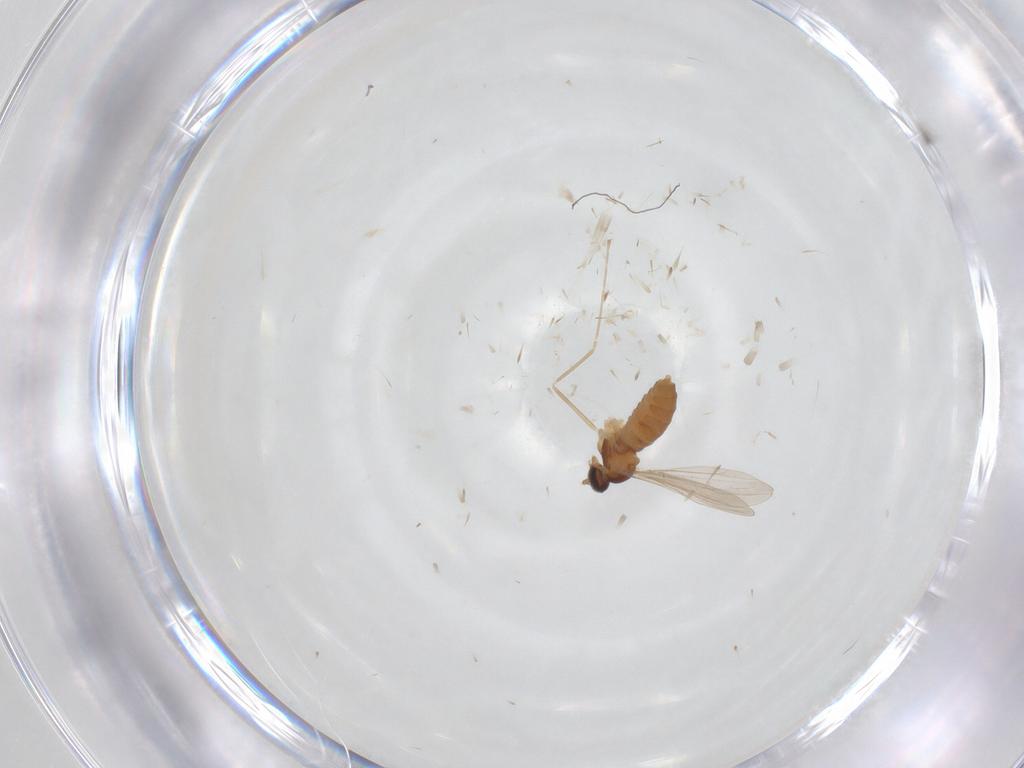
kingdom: Animalia
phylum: Arthropoda
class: Insecta
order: Diptera
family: Cecidomyiidae
